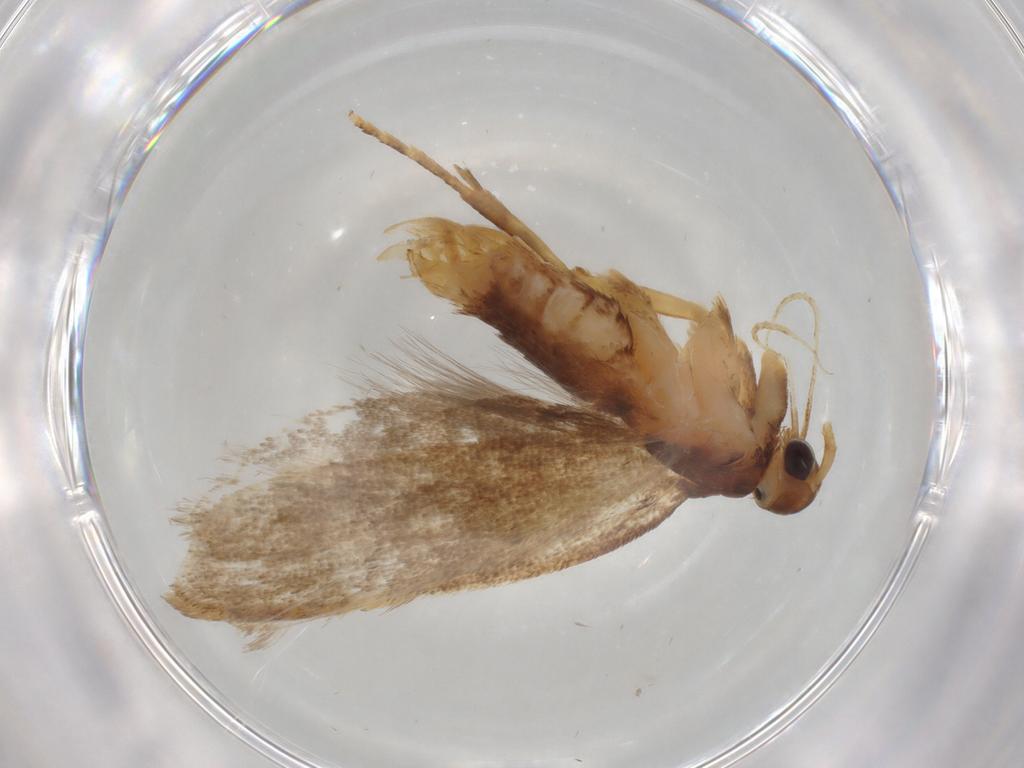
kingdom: Animalia
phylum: Arthropoda
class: Insecta
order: Lepidoptera
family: Lecithoceridae
